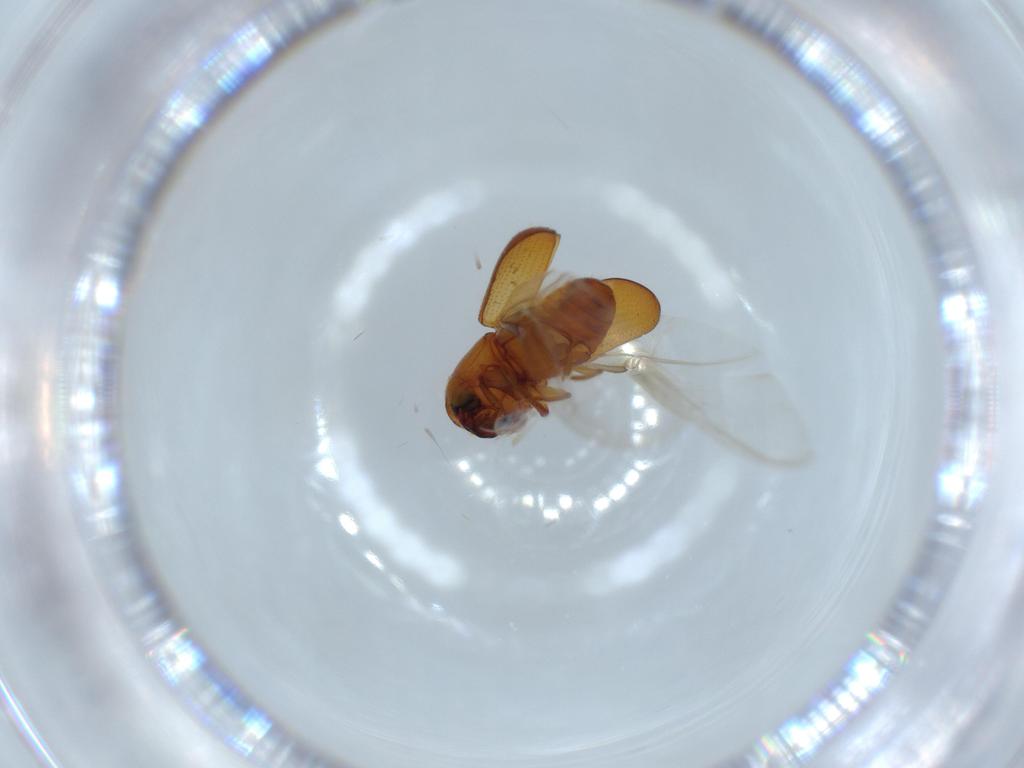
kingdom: Animalia
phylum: Arthropoda
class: Insecta
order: Coleoptera
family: Curculionidae
